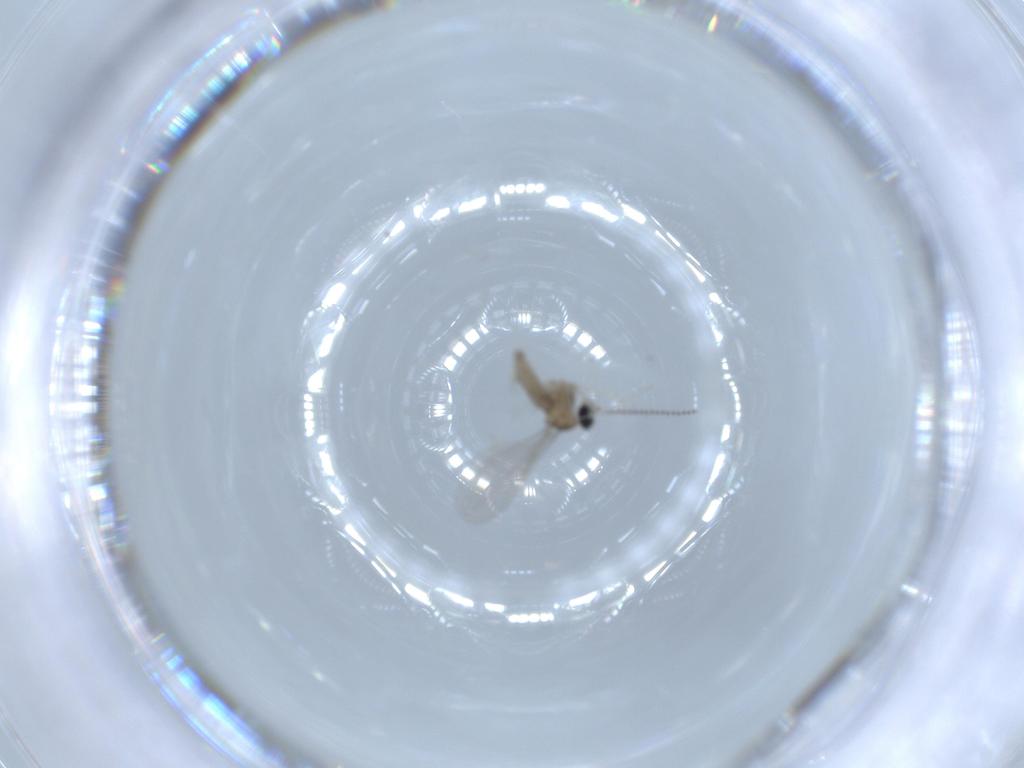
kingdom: Animalia
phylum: Arthropoda
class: Insecta
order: Diptera
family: Cecidomyiidae
